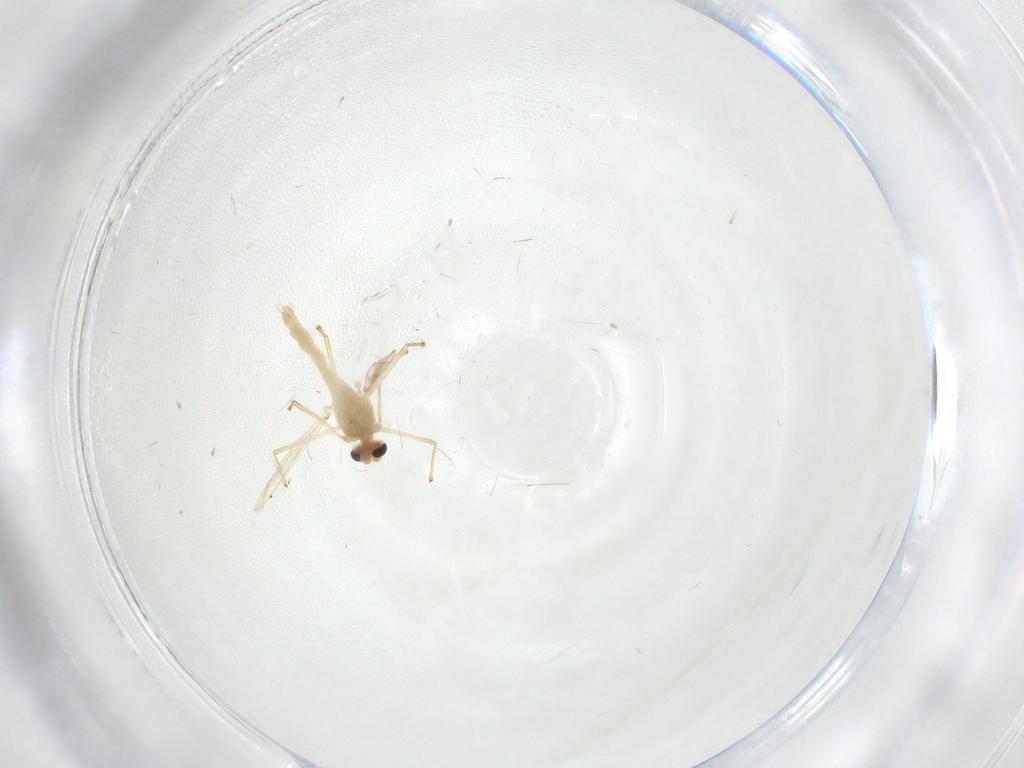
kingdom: Animalia
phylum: Arthropoda
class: Insecta
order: Diptera
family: Chironomidae
